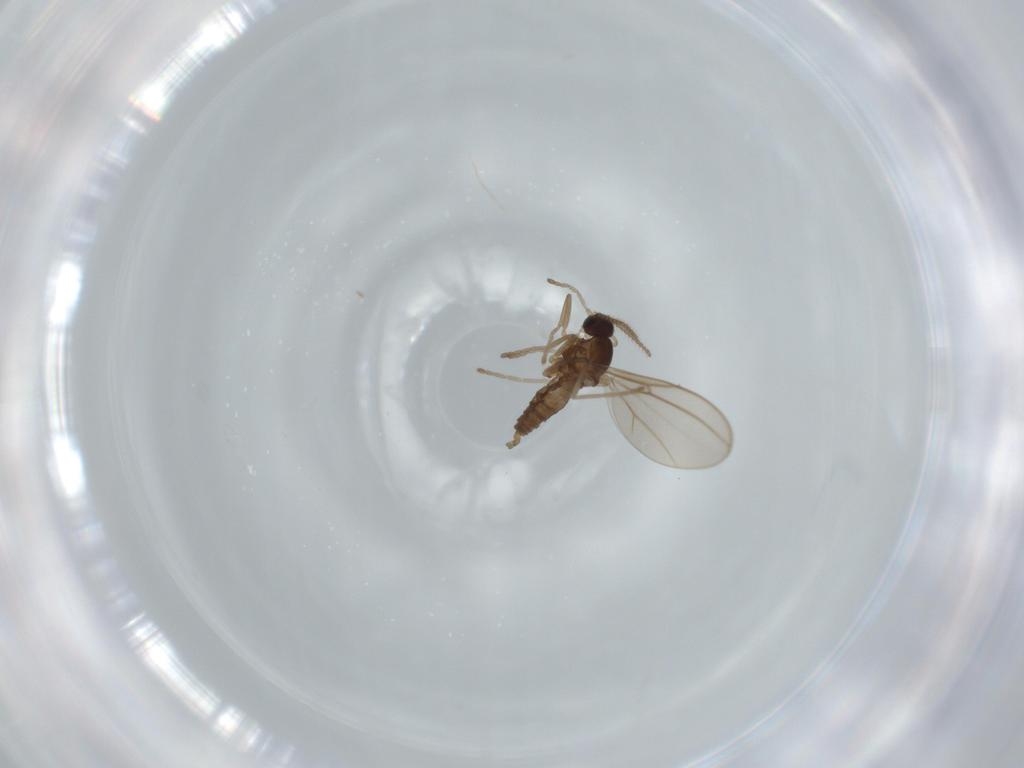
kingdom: Animalia
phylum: Arthropoda
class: Insecta
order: Diptera
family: Cecidomyiidae
